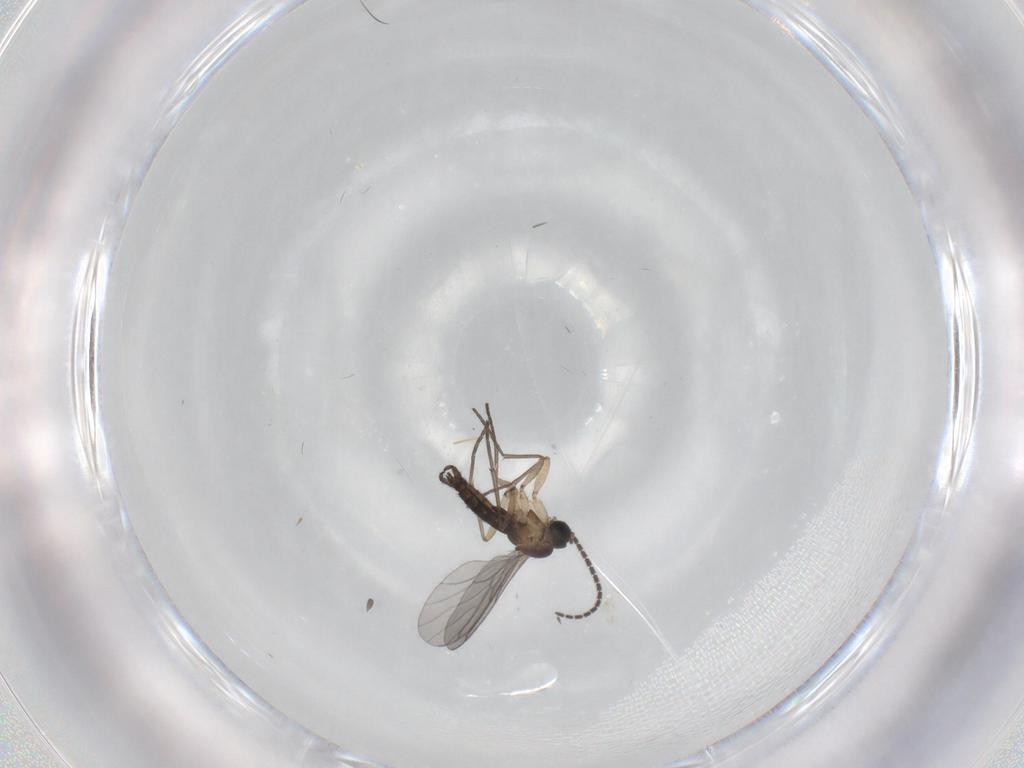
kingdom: Animalia
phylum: Arthropoda
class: Insecta
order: Diptera
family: Sciaridae
